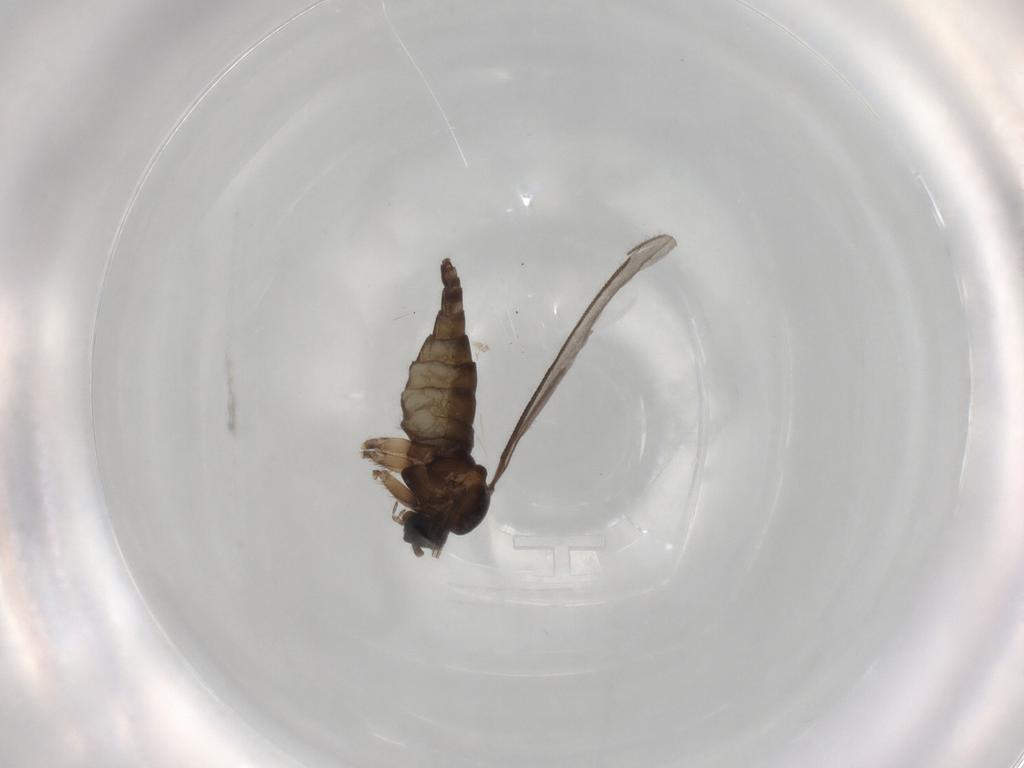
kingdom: Animalia
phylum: Arthropoda
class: Insecta
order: Diptera
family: Sciaridae
